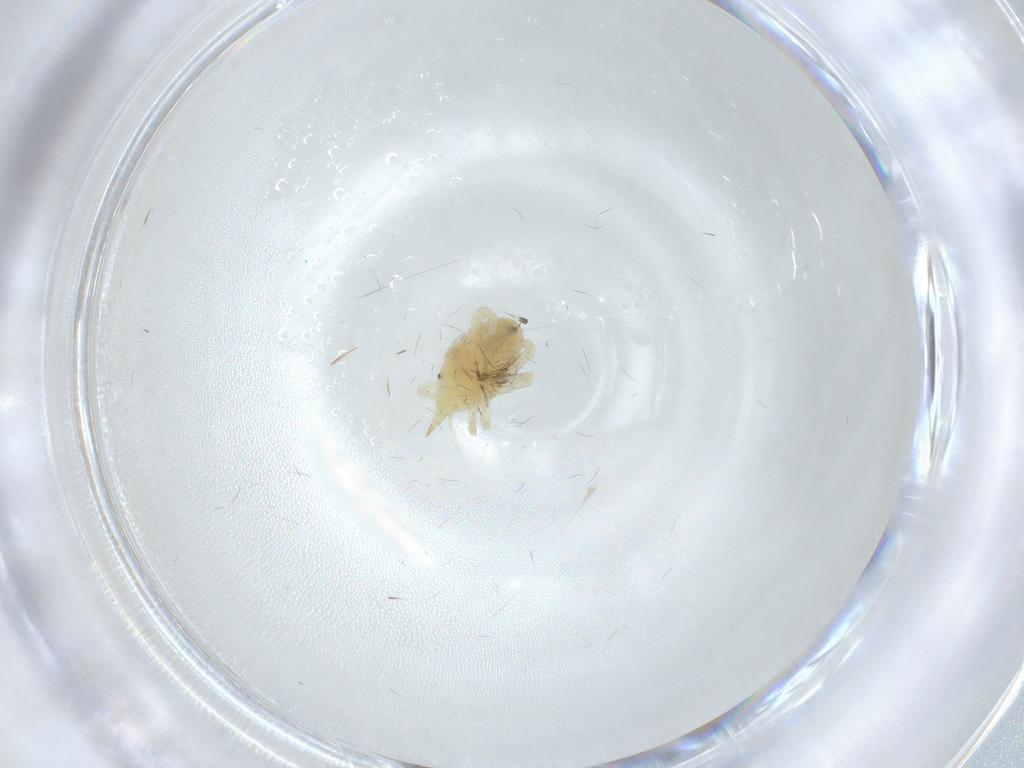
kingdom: Animalia
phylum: Arthropoda
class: Arachnida
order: Trombidiformes
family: Bdellidae
